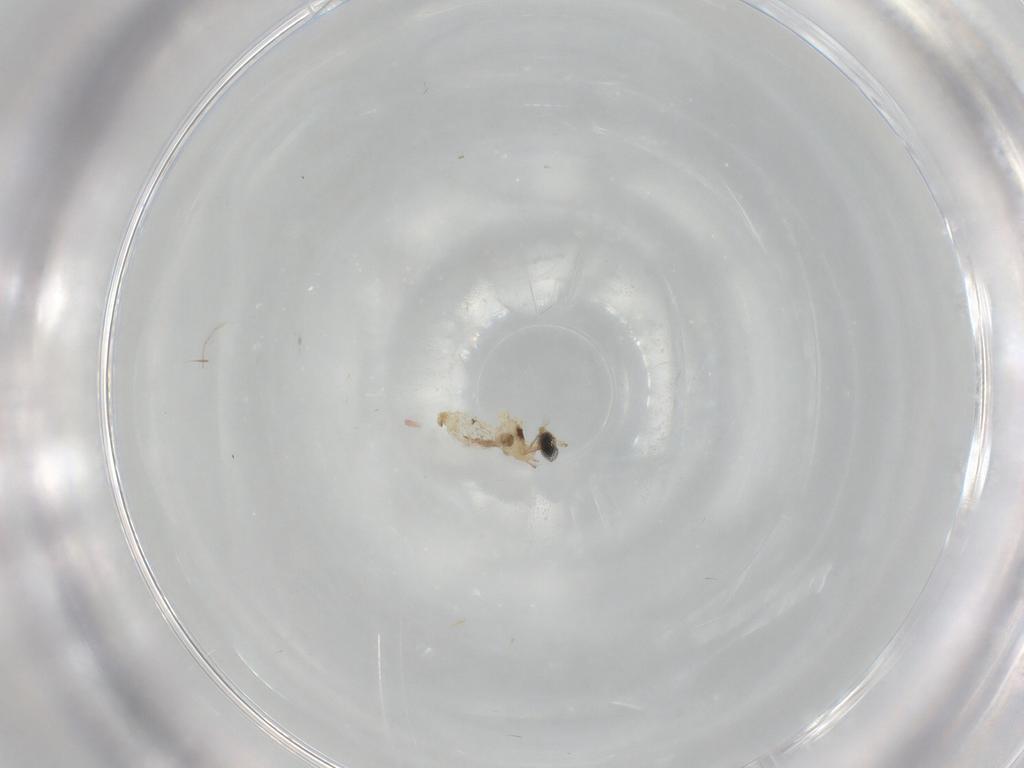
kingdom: Animalia
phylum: Arthropoda
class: Insecta
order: Diptera
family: Cecidomyiidae
